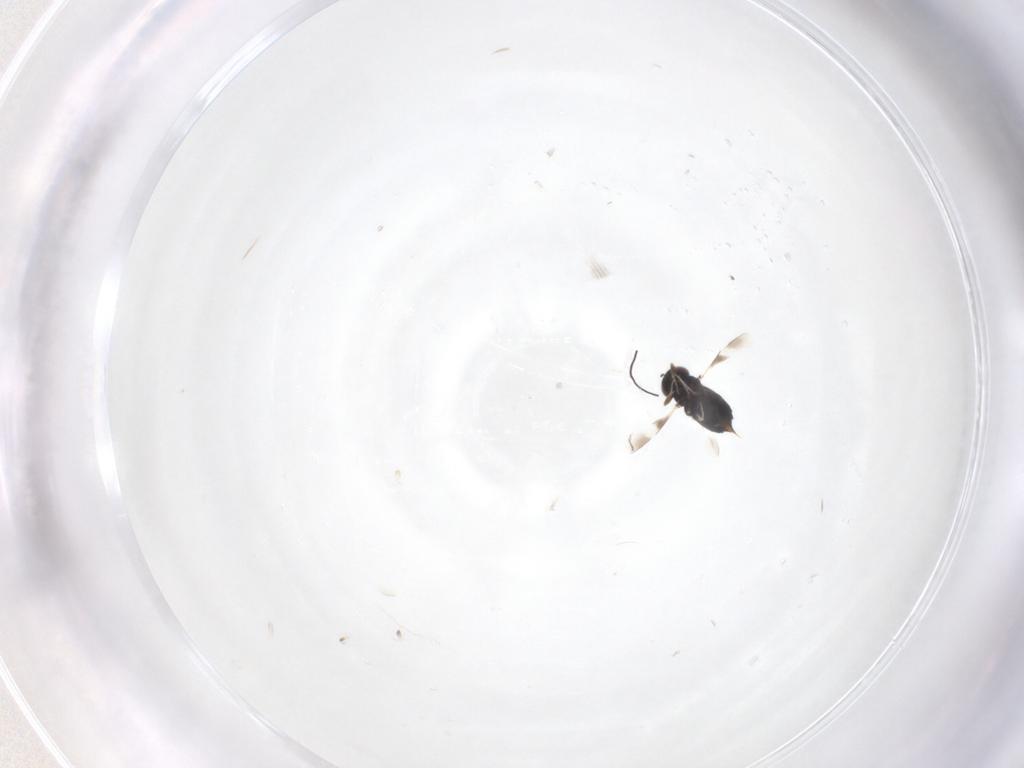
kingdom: Animalia
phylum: Arthropoda
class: Insecta
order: Hymenoptera
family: Signiphoridae
